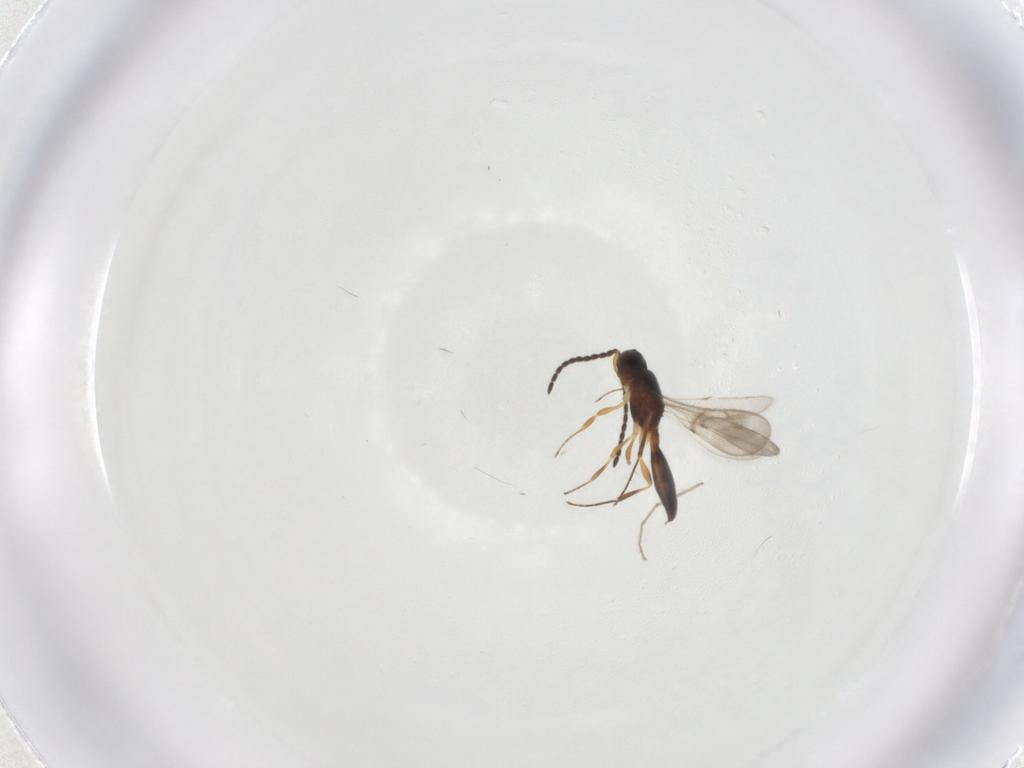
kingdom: Animalia
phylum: Arthropoda
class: Insecta
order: Hymenoptera
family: Scelionidae
